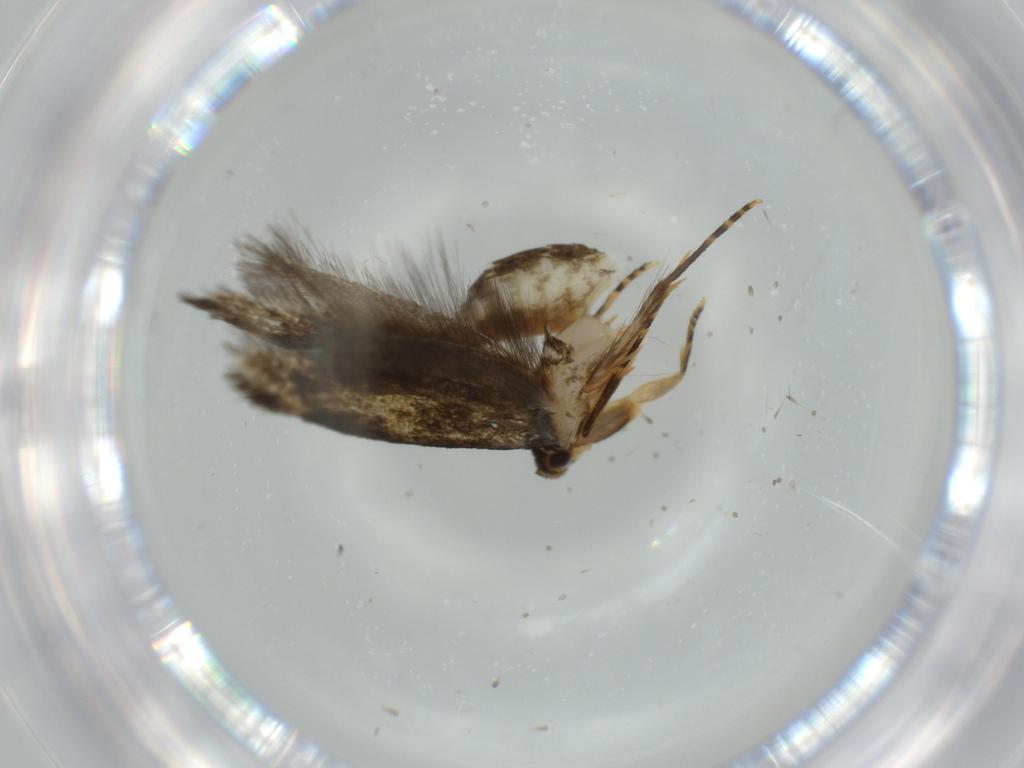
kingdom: Animalia
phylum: Arthropoda
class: Insecta
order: Lepidoptera
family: Tineidae
